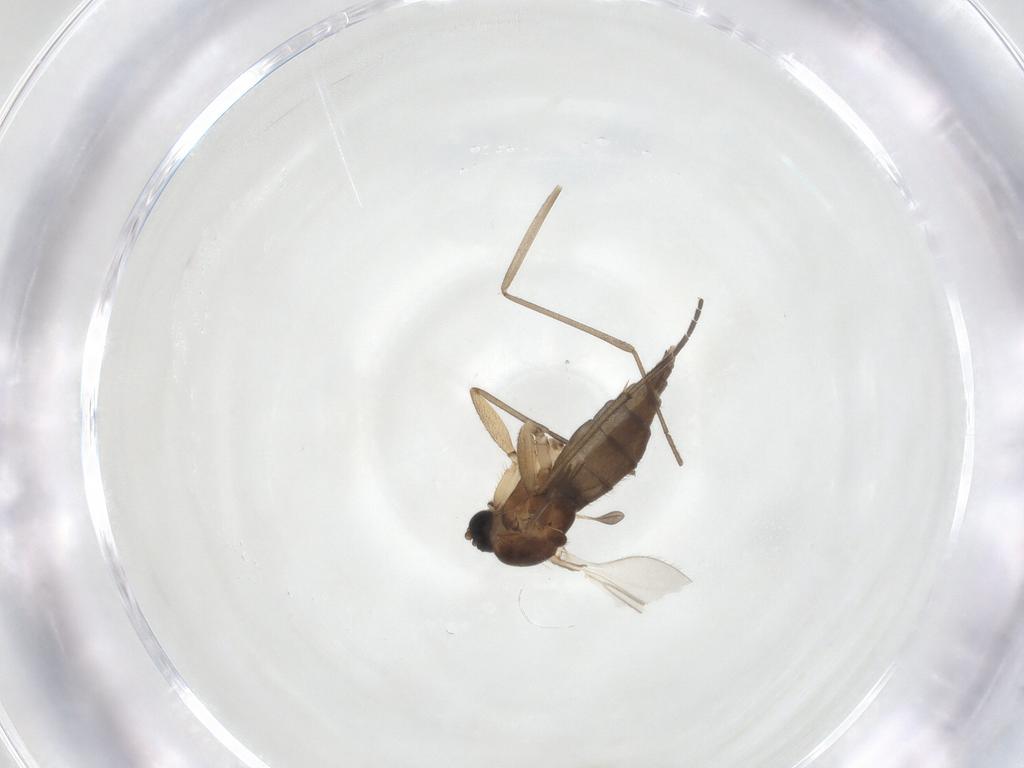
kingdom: Animalia
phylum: Arthropoda
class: Insecta
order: Diptera
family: Sciaridae
